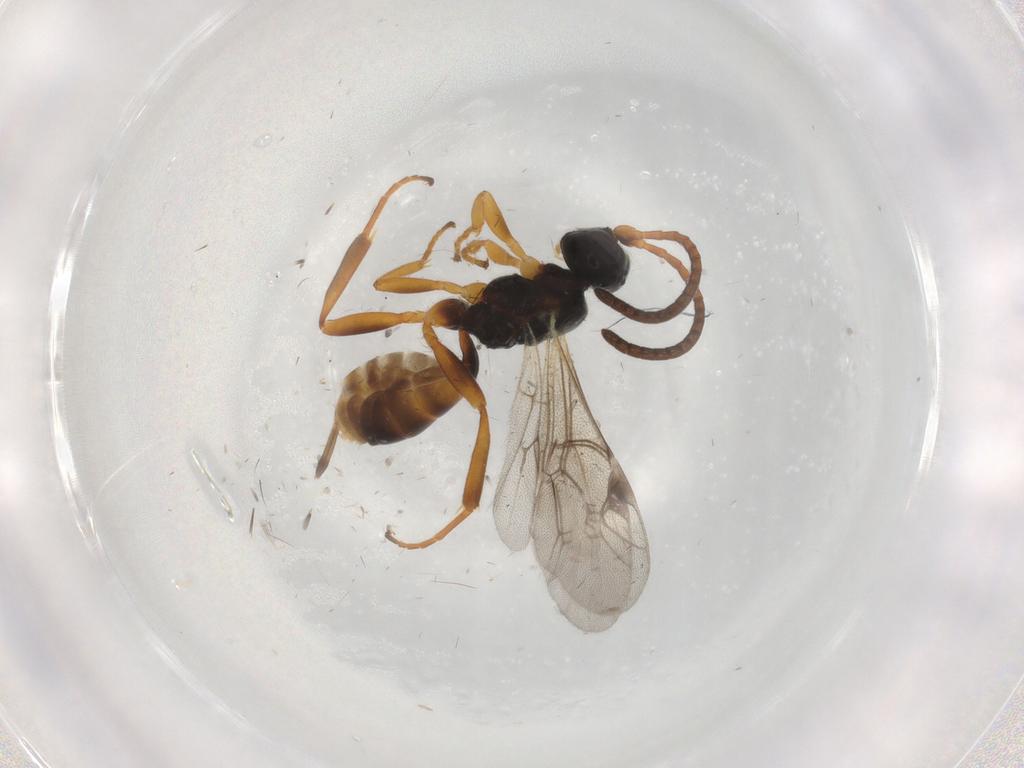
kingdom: Animalia
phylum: Arthropoda
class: Insecta
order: Hymenoptera
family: Ichneumonidae
